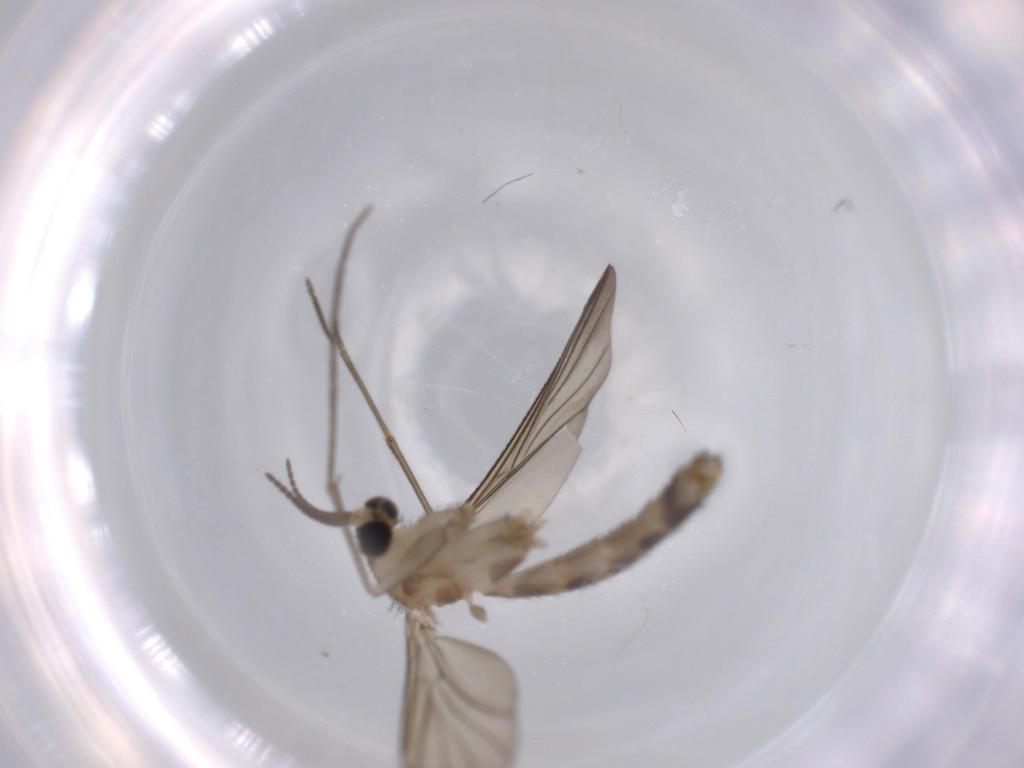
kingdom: Animalia
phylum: Arthropoda
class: Insecta
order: Diptera
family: Mycetophilidae
